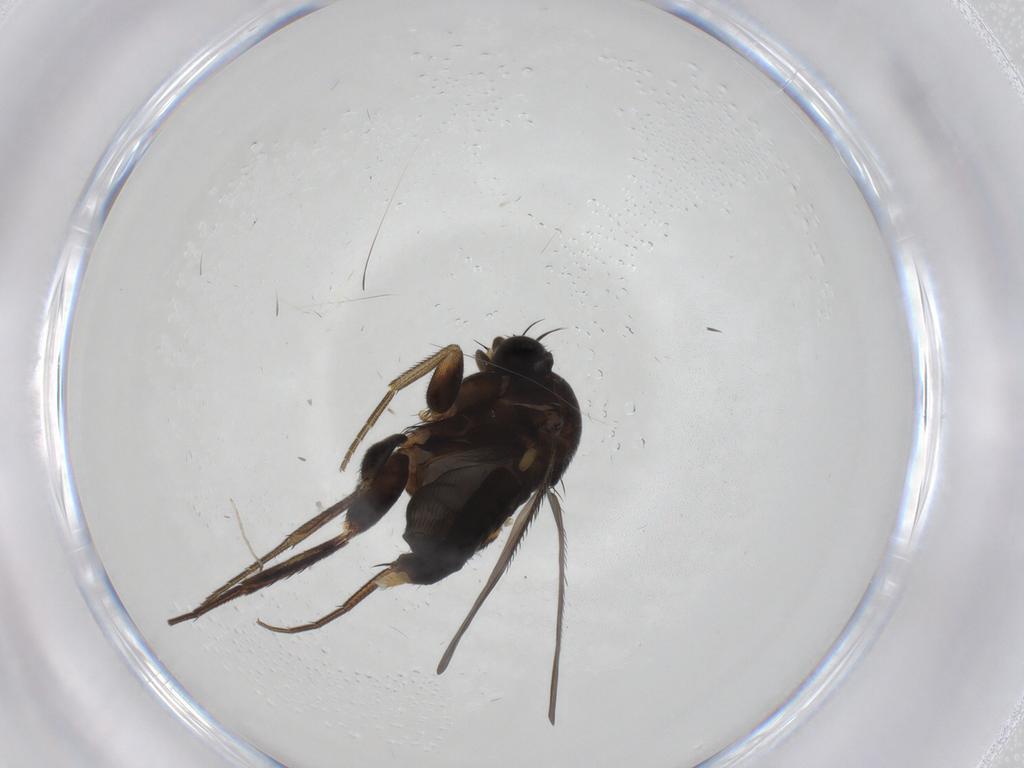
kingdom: Animalia
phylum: Arthropoda
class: Insecta
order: Diptera
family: Phoridae
